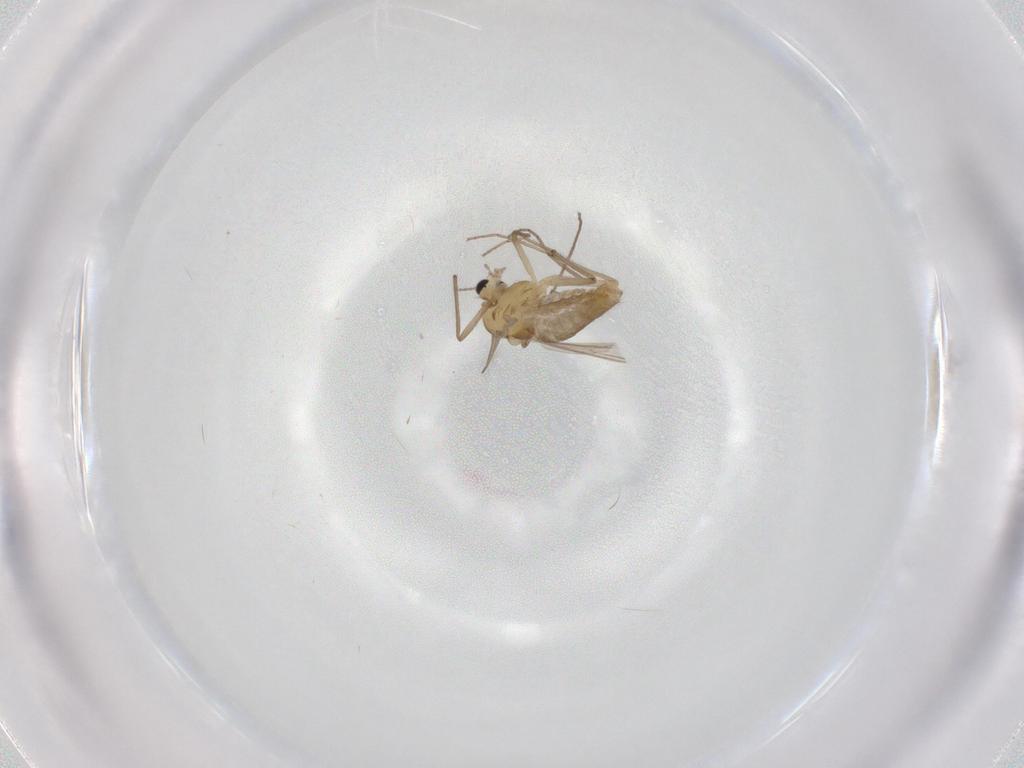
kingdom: Animalia
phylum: Arthropoda
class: Insecta
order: Diptera
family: Chironomidae
